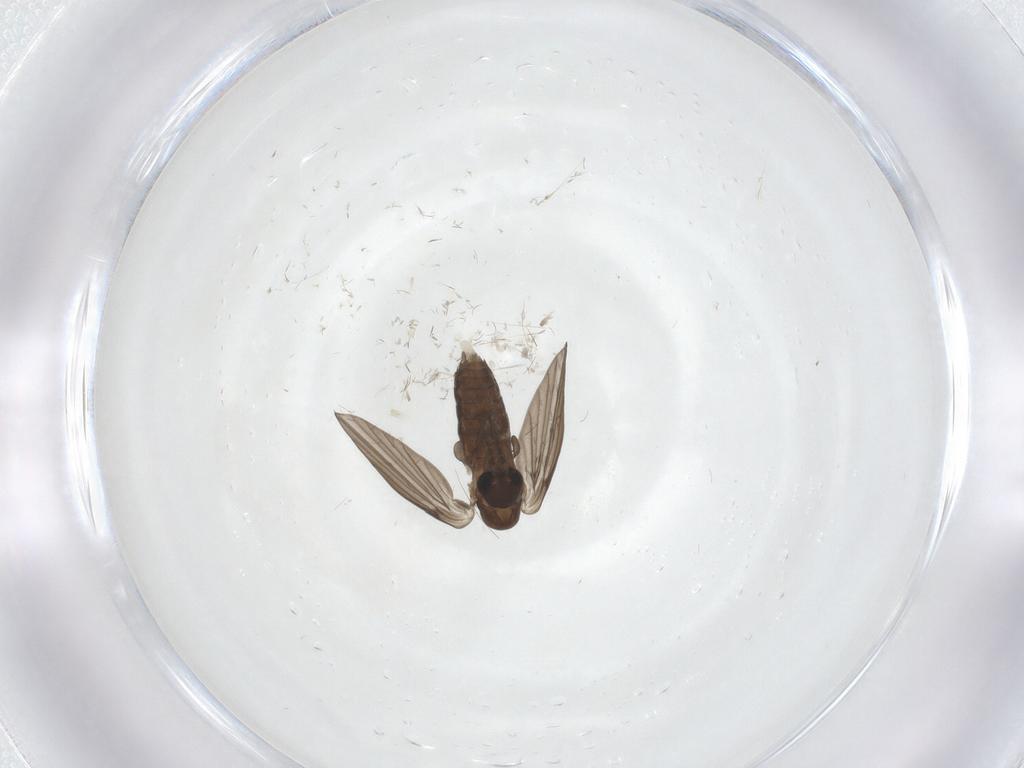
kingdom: Animalia
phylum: Arthropoda
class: Insecta
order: Diptera
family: Psychodidae
